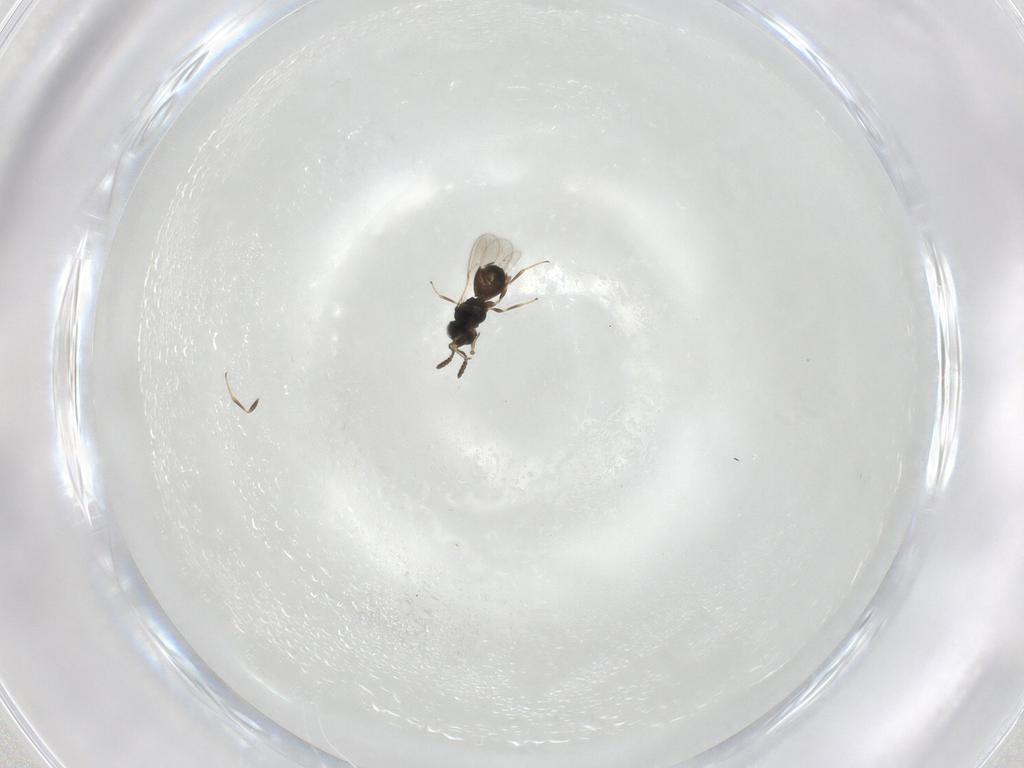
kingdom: Animalia
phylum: Arthropoda
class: Insecta
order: Hymenoptera
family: Scelionidae
